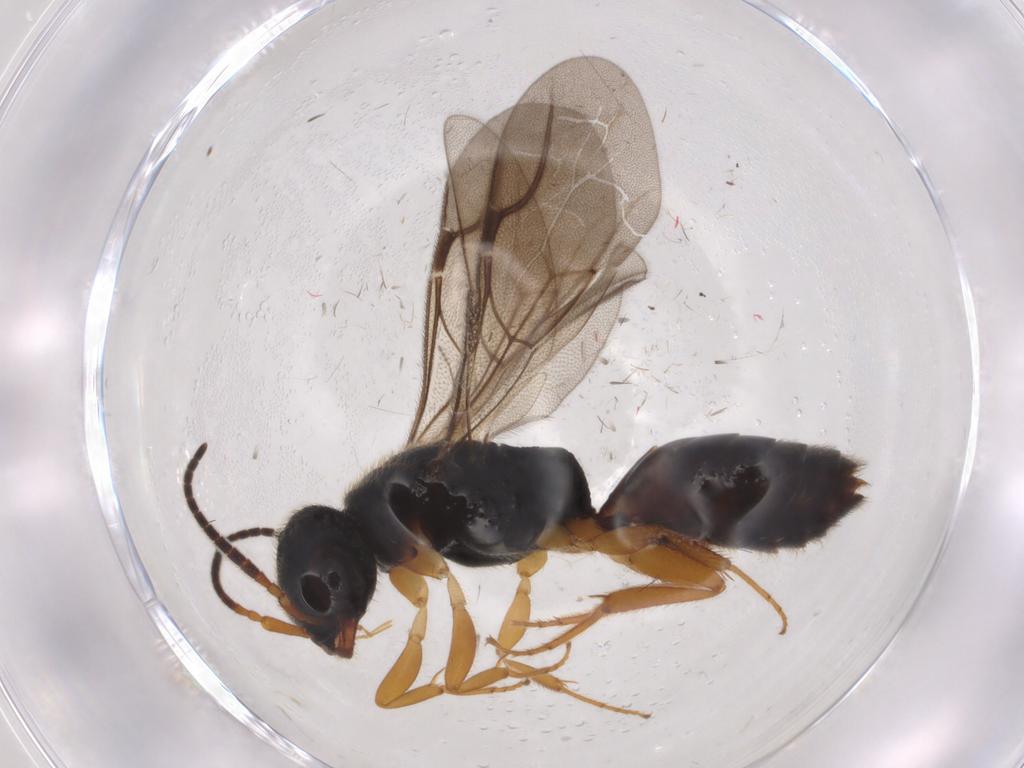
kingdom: Animalia
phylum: Arthropoda
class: Insecta
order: Hymenoptera
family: Bethylidae
